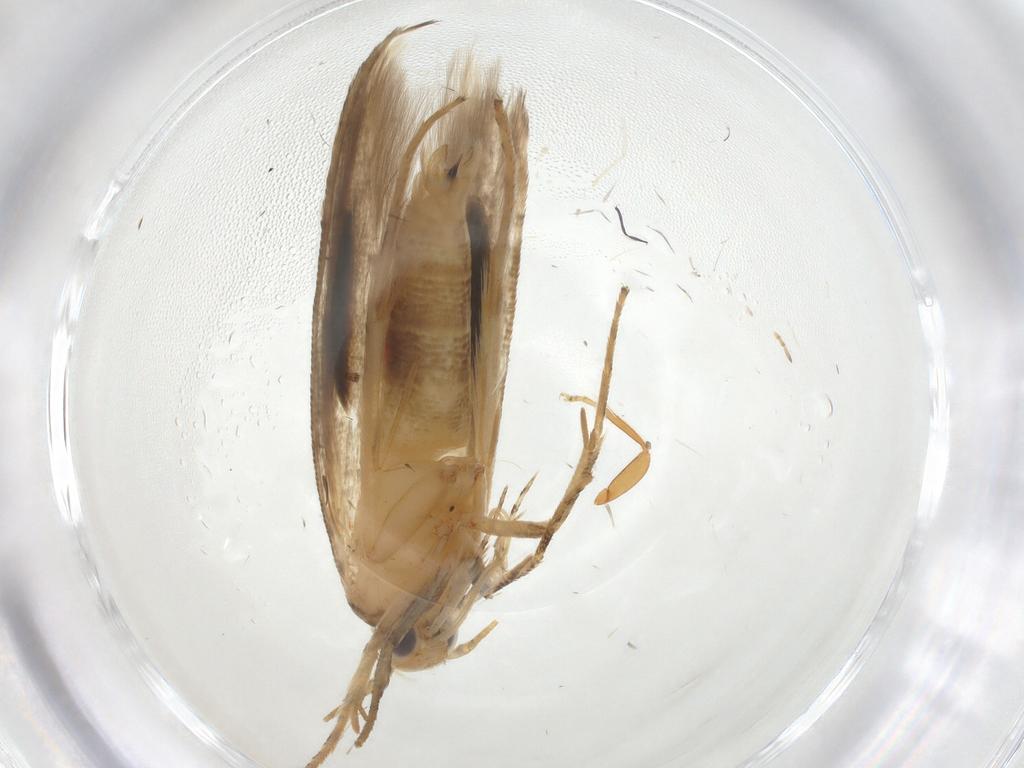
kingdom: Animalia
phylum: Arthropoda
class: Insecta
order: Lepidoptera
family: Momphidae
